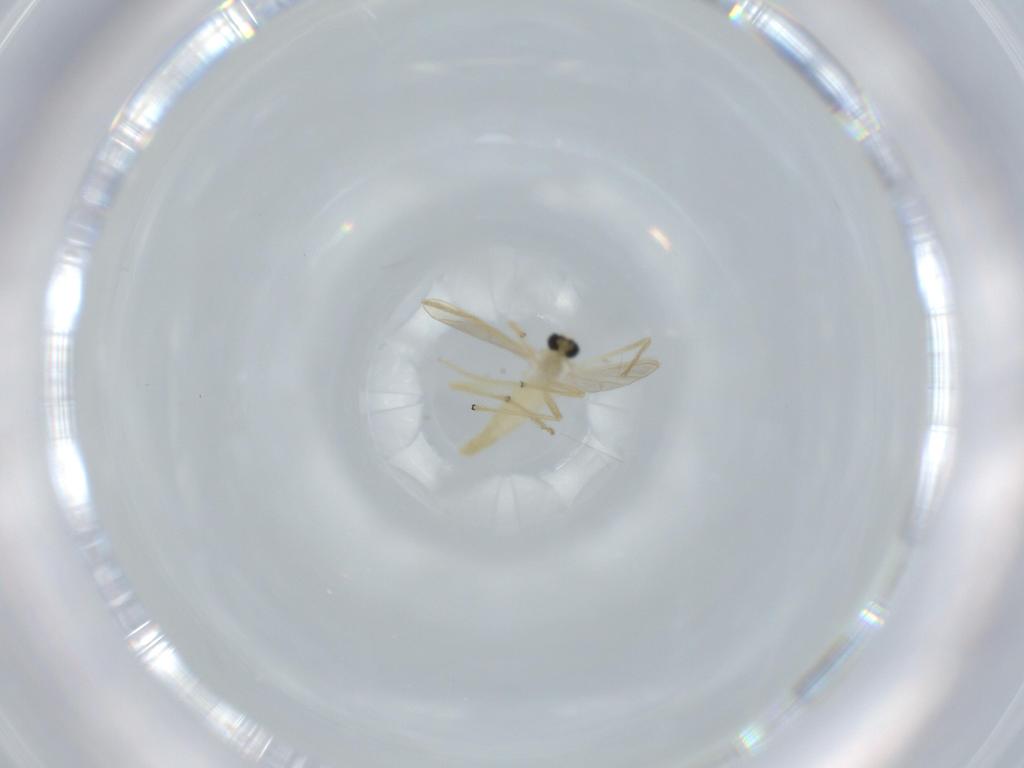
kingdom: Animalia
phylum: Arthropoda
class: Insecta
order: Diptera
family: Chironomidae
